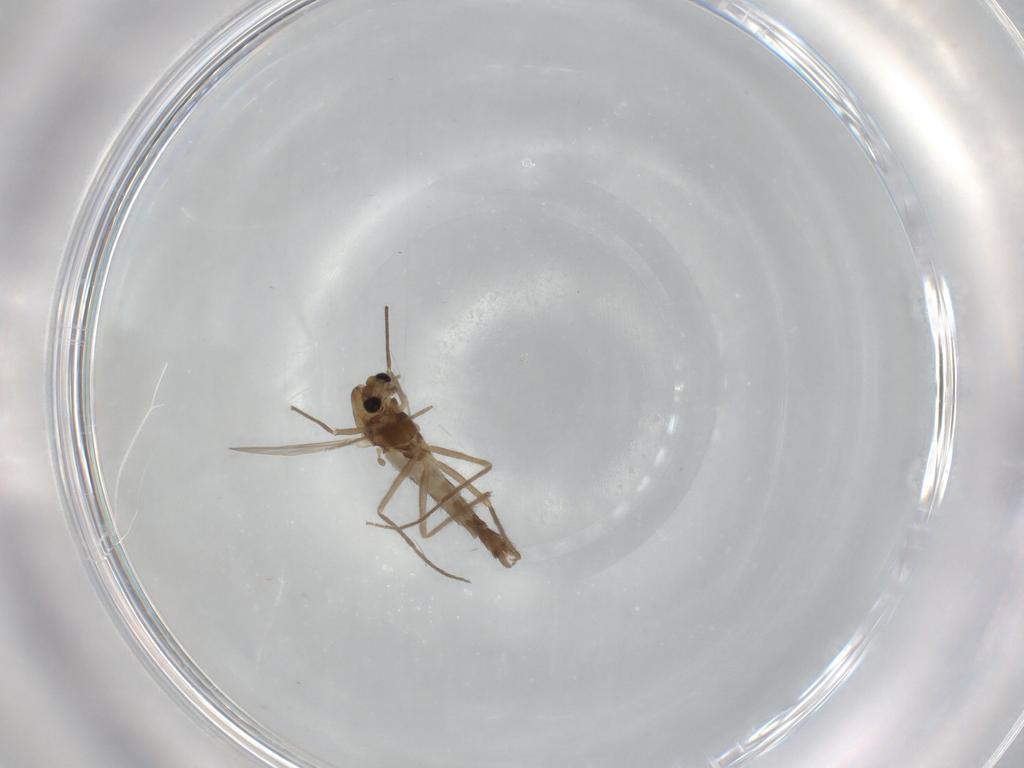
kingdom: Animalia
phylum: Arthropoda
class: Insecta
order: Diptera
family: Chironomidae
